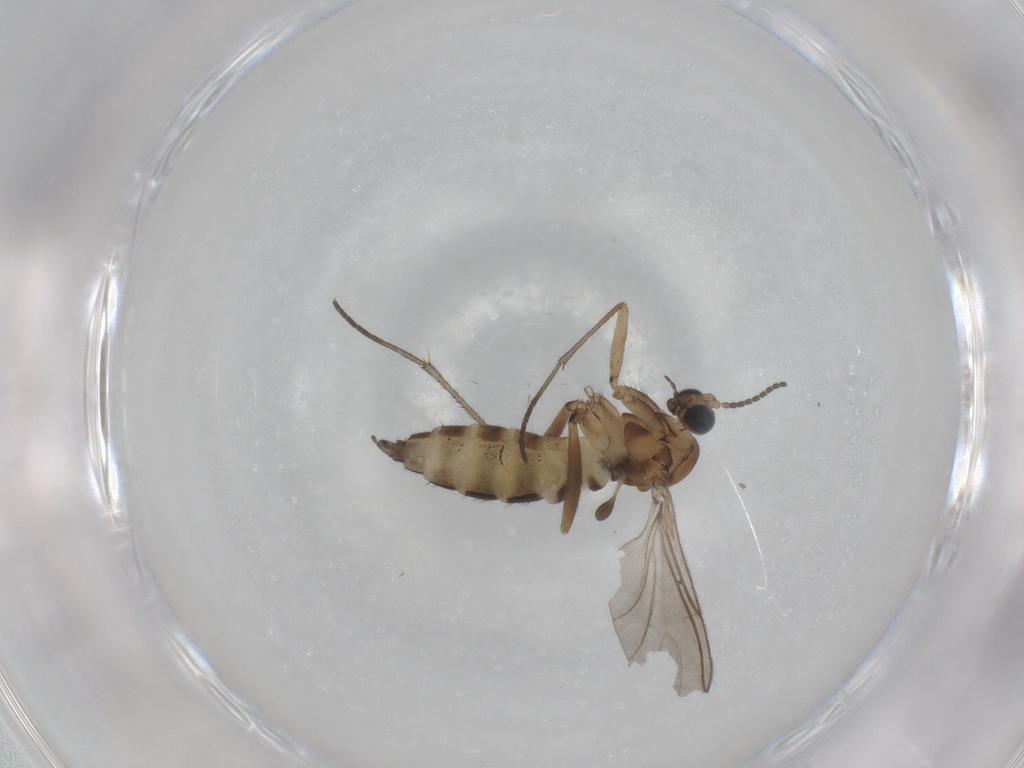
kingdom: Animalia
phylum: Arthropoda
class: Insecta
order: Diptera
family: Sciaridae
